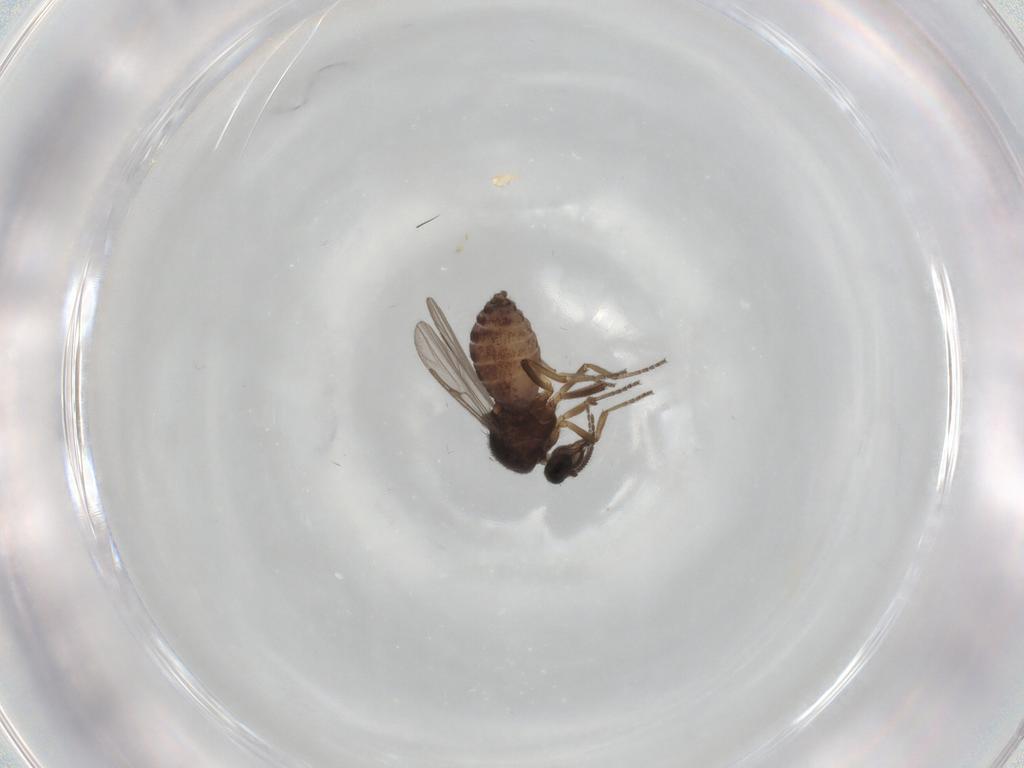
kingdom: Animalia
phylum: Arthropoda
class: Insecta
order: Diptera
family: Ceratopogonidae
